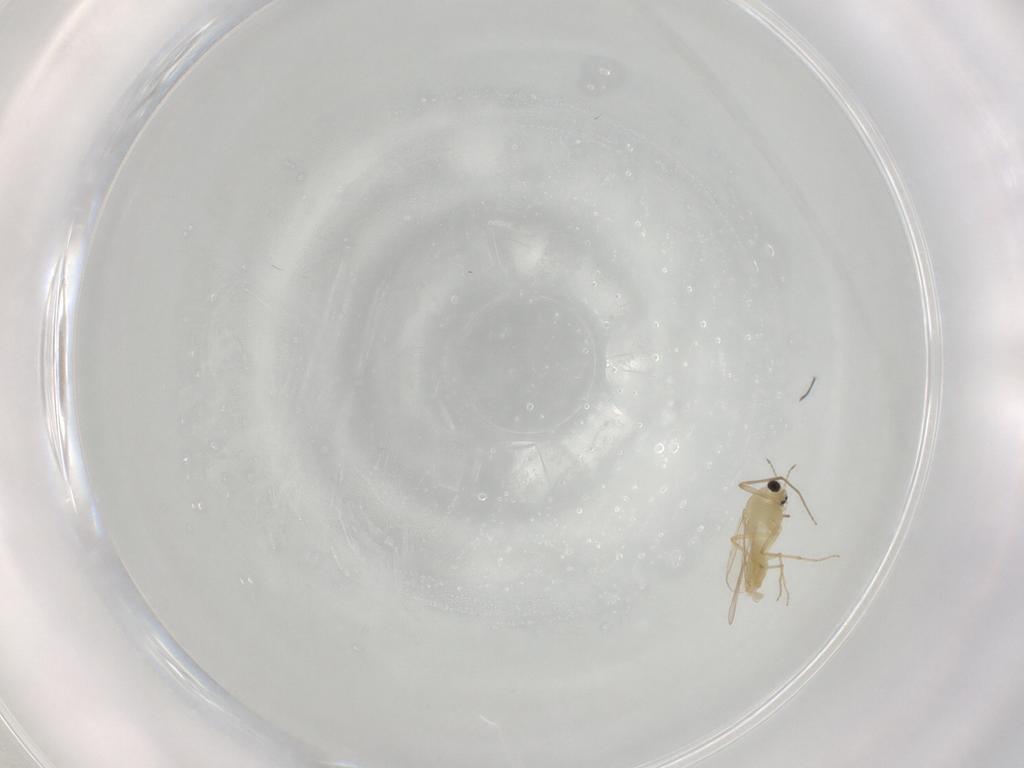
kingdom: Animalia
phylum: Arthropoda
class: Insecta
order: Diptera
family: Chironomidae
